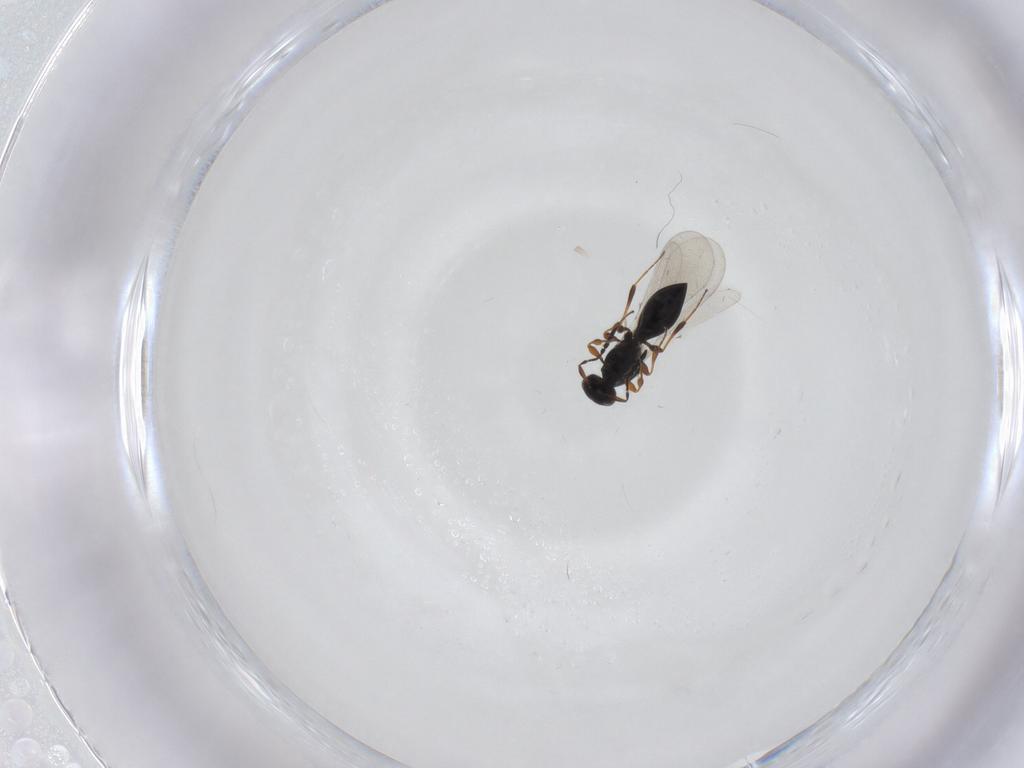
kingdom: Animalia
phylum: Arthropoda
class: Insecta
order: Hymenoptera
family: Platygastridae
